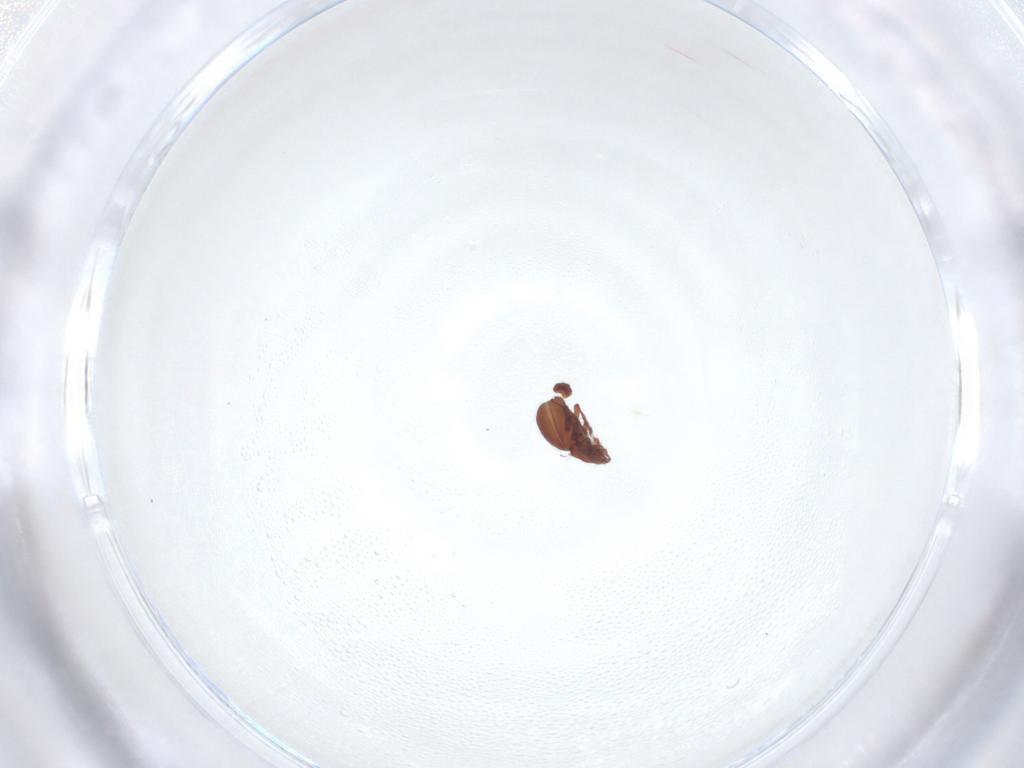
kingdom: Animalia
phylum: Arthropoda
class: Arachnida
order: Sarcoptiformes
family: Eremaeidae
